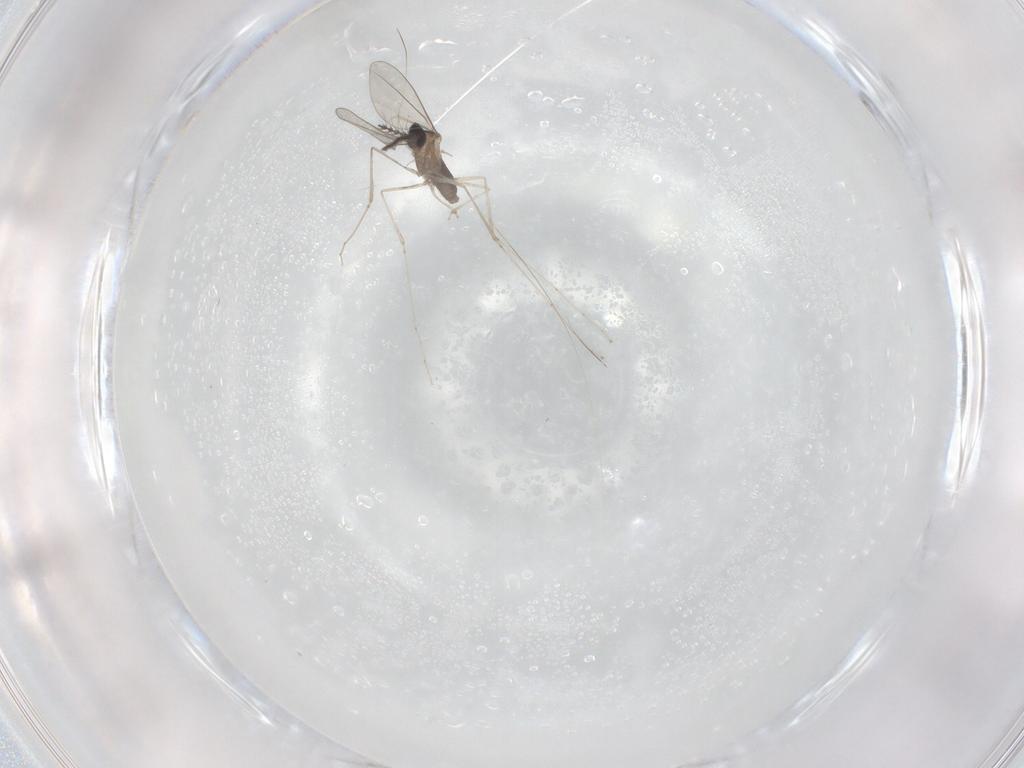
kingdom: Animalia
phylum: Arthropoda
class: Insecta
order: Diptera
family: Cecidomyiidae
